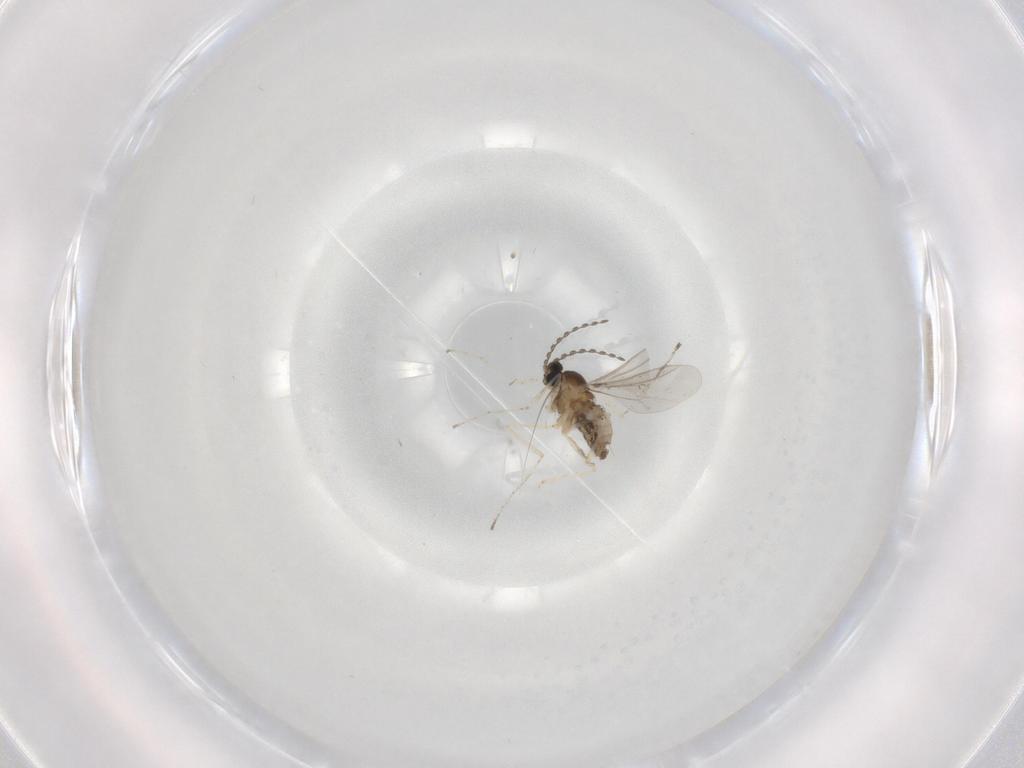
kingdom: Animalia
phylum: Arthropoda
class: Insecta
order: Diptera
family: Cecidomyiidae
